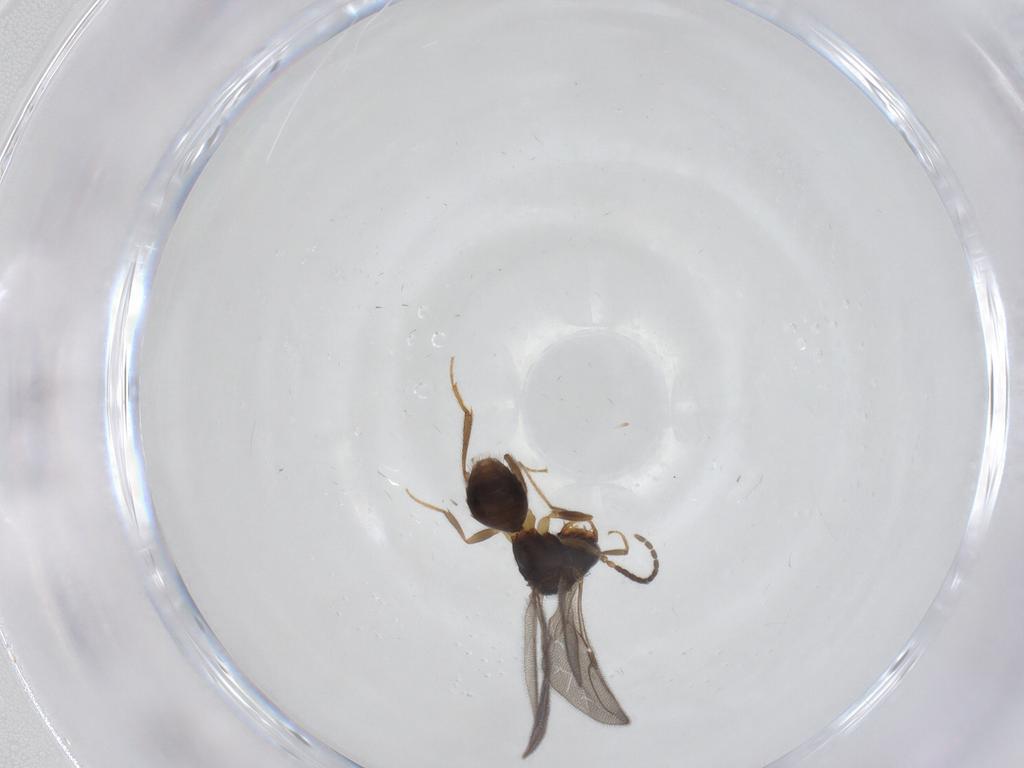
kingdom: Animalia
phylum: Arthropoda
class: Insecta
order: Hymenoptera
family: Bethylidae
